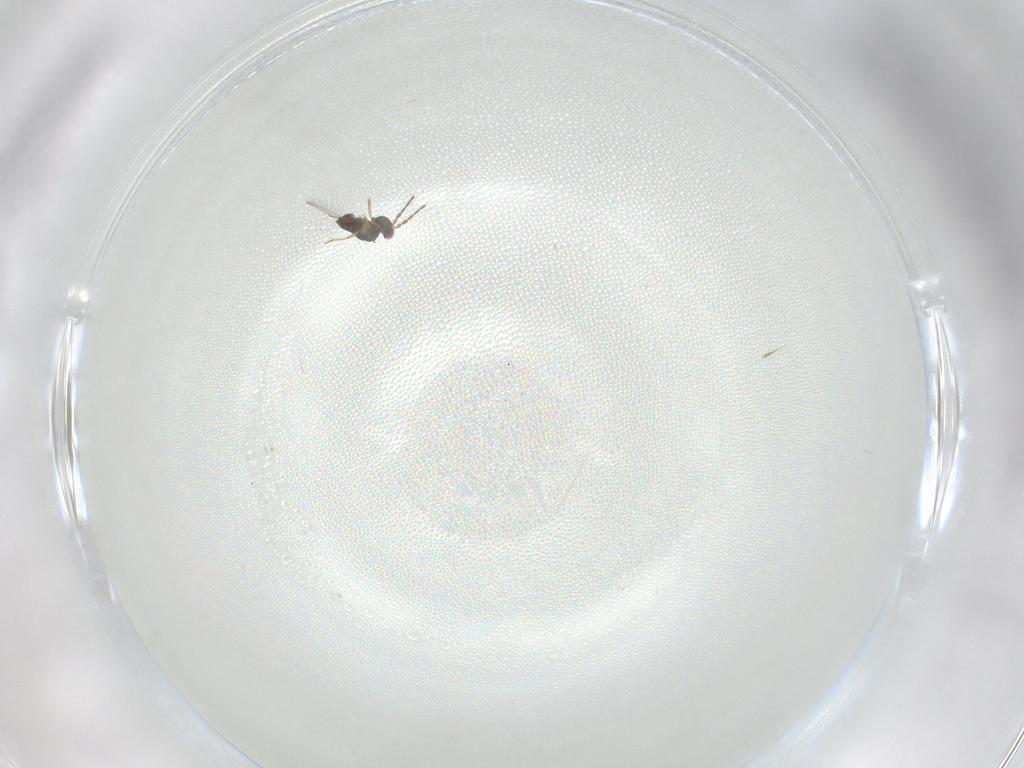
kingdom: Animalia
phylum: Arthropoda
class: Insecta
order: Hymenoptera
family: Eulophidae
